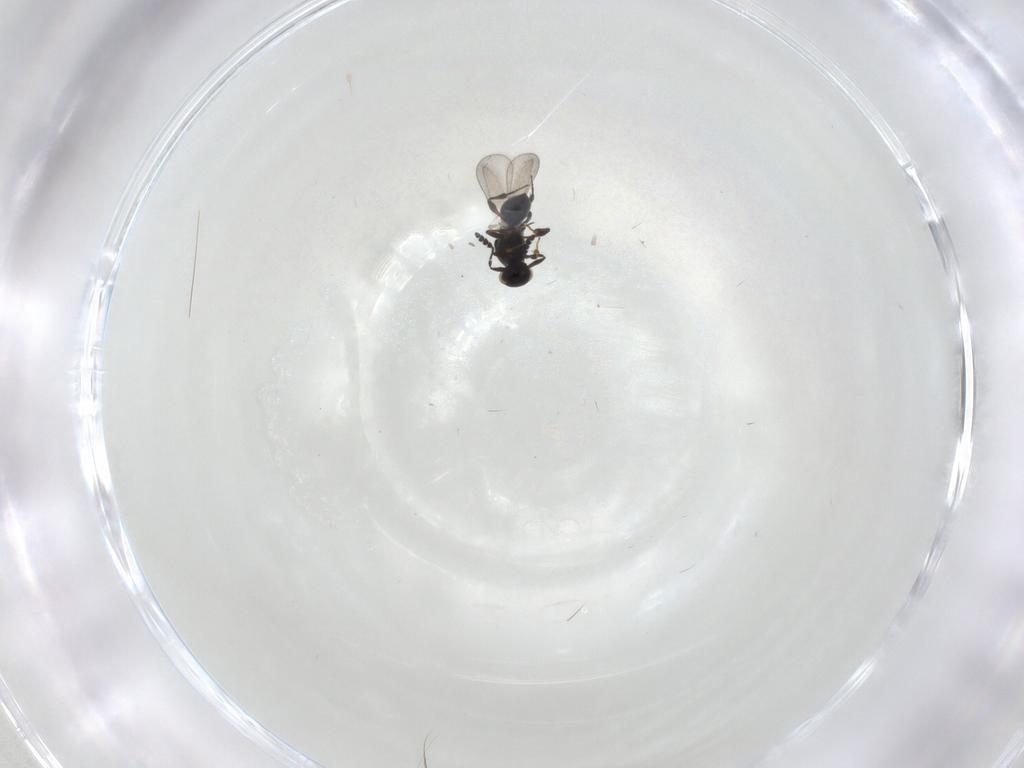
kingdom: Animalia
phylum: Arthropoda
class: Insecta
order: Hymenoptera
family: Platygastridae
